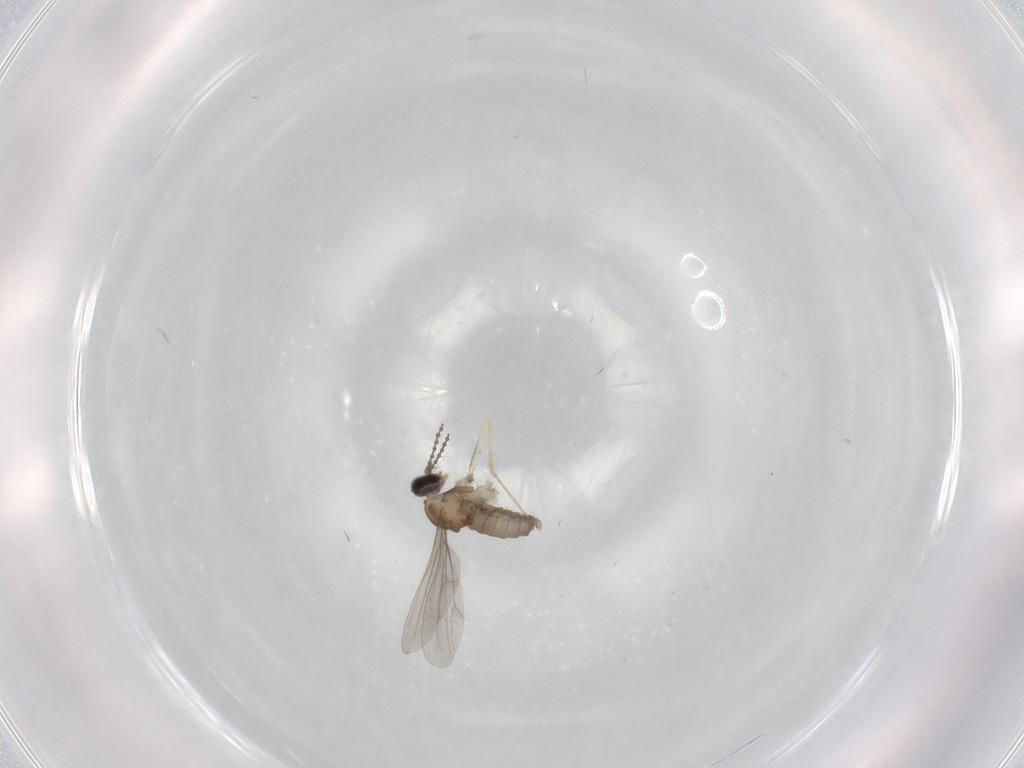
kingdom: Animalia
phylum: Arthropoda
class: Insecta
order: Diptera
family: Cecidomyiidae
